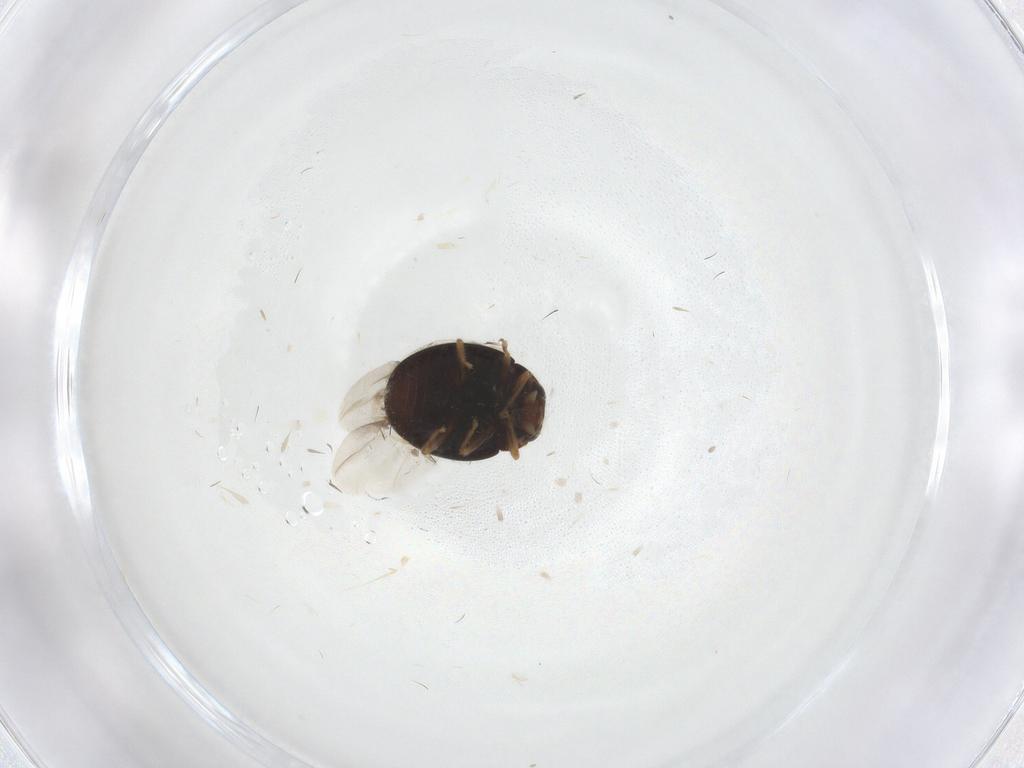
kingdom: Animalia
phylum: Arthropoda
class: Insecta
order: Coleoptera
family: Coccinellidae
